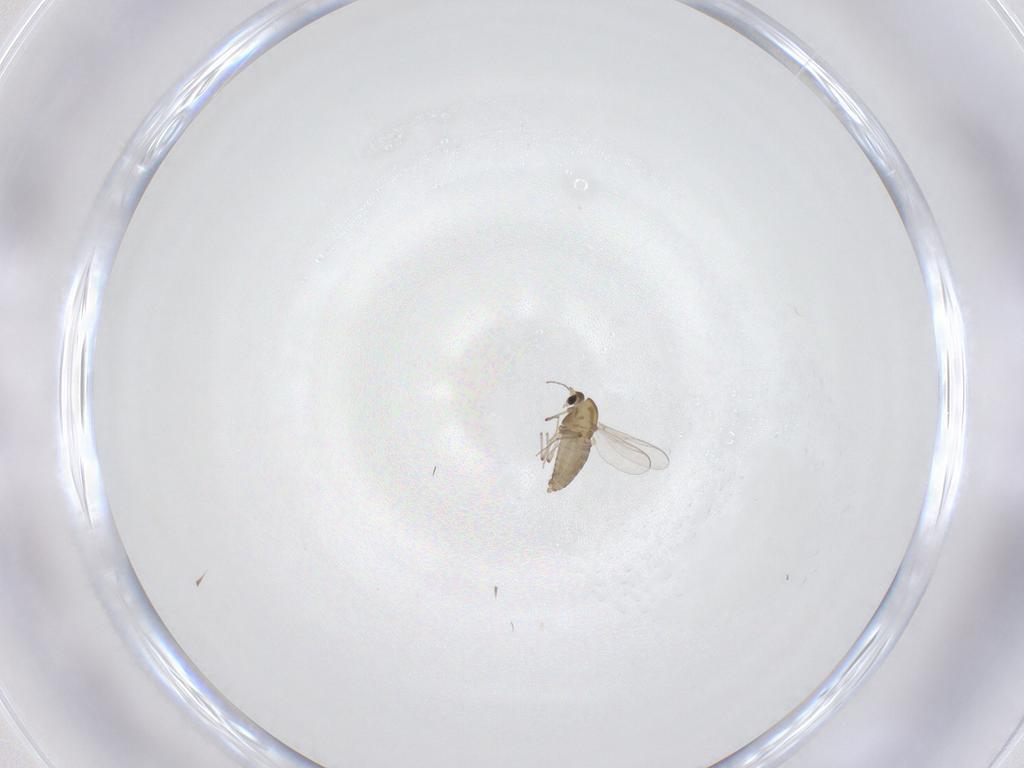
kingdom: Animalia
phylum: Arthropoda
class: Insecta
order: Diptera
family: Chironomidae
